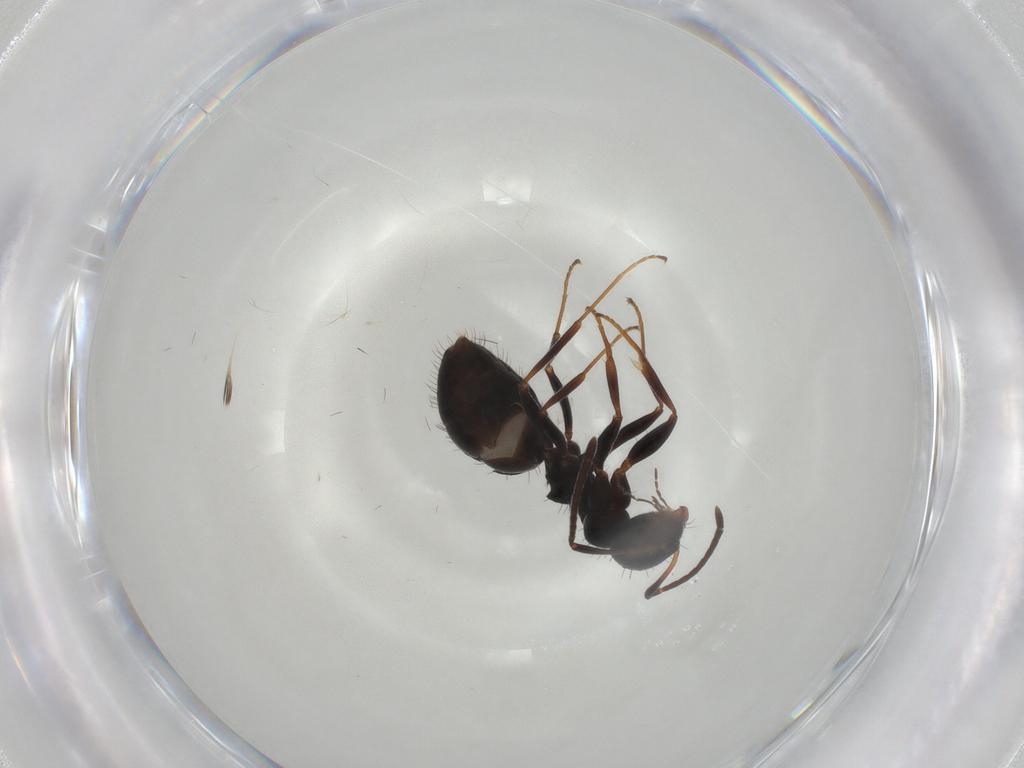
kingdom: Animalia
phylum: Arthropoda
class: Insecta
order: Hymenoptera
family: Formicidae
